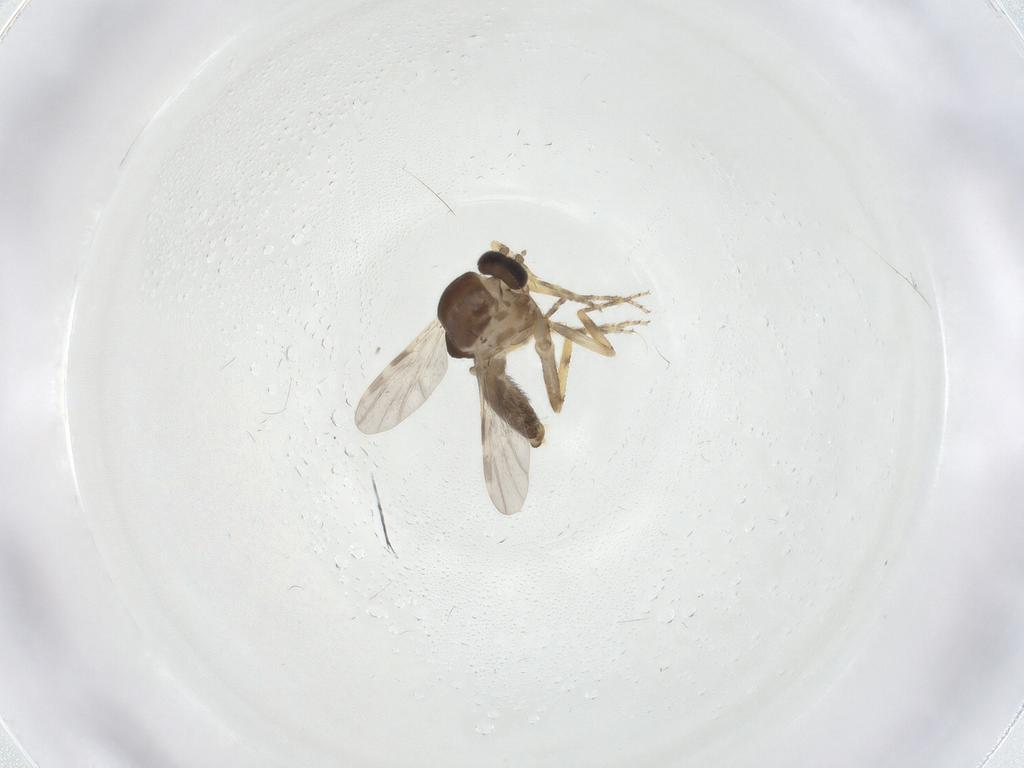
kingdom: Animalia
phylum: Arthropoda
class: Insecta
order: Diptera
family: Ceratopogonidae
